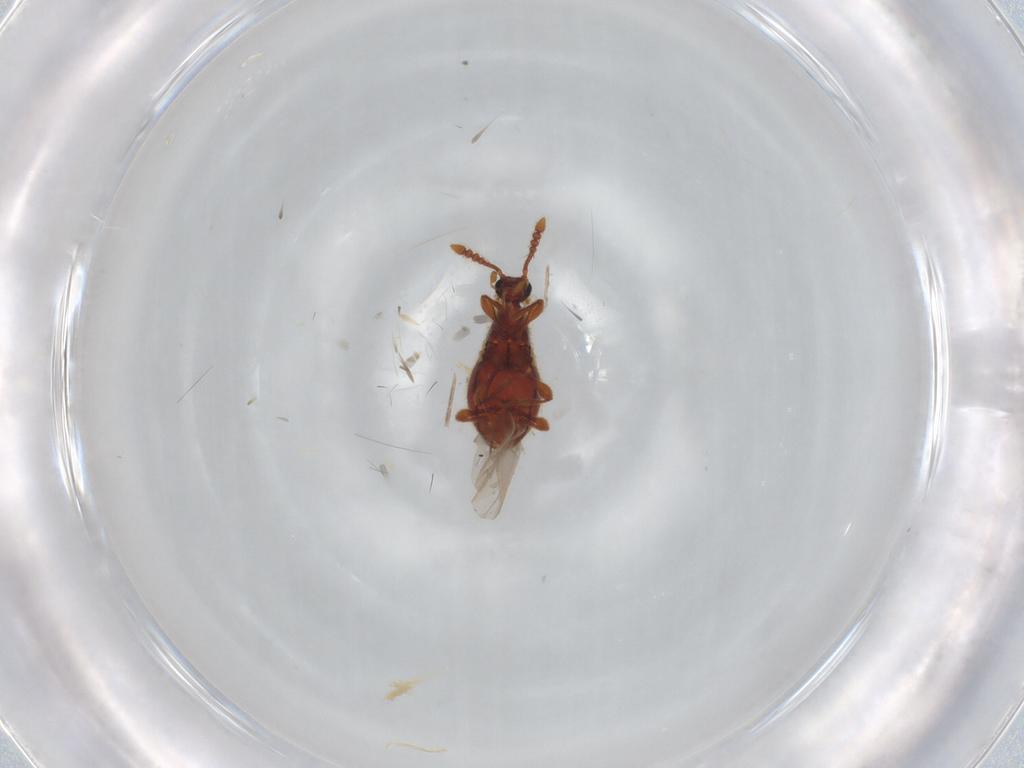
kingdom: Animalia
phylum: Arthropoda
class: Insecta
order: Coleoptera
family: Staphylinidae
